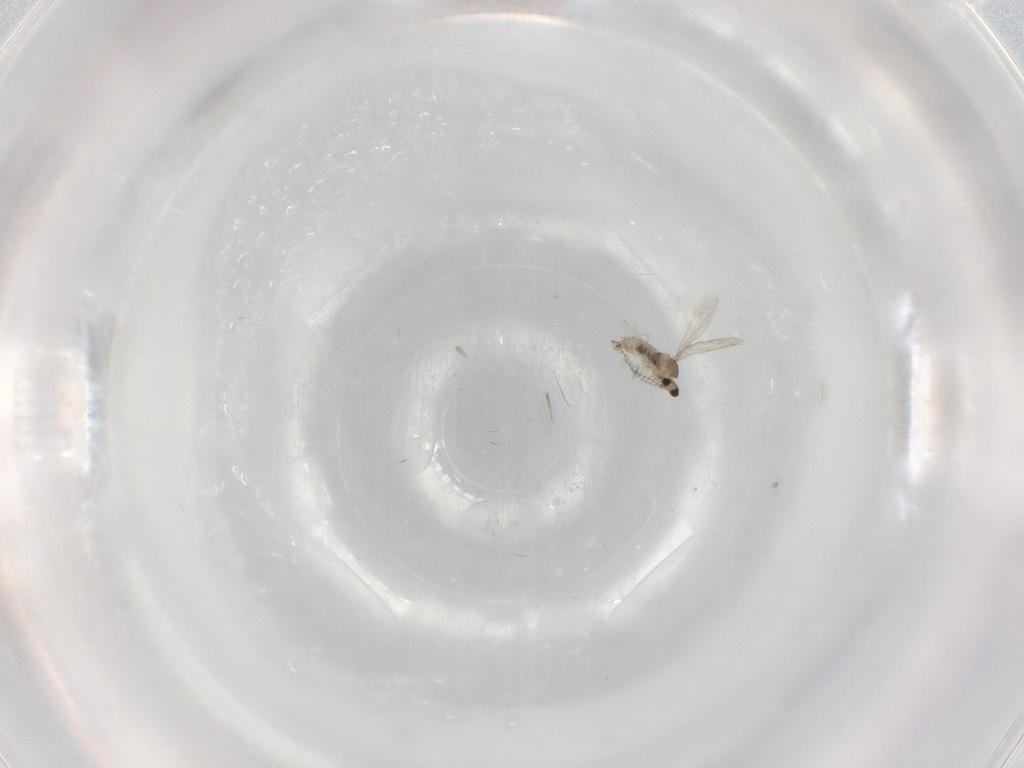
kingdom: Animalia
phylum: Arthropoda
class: Insecta
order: Diptera
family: Cecidomyiidae
